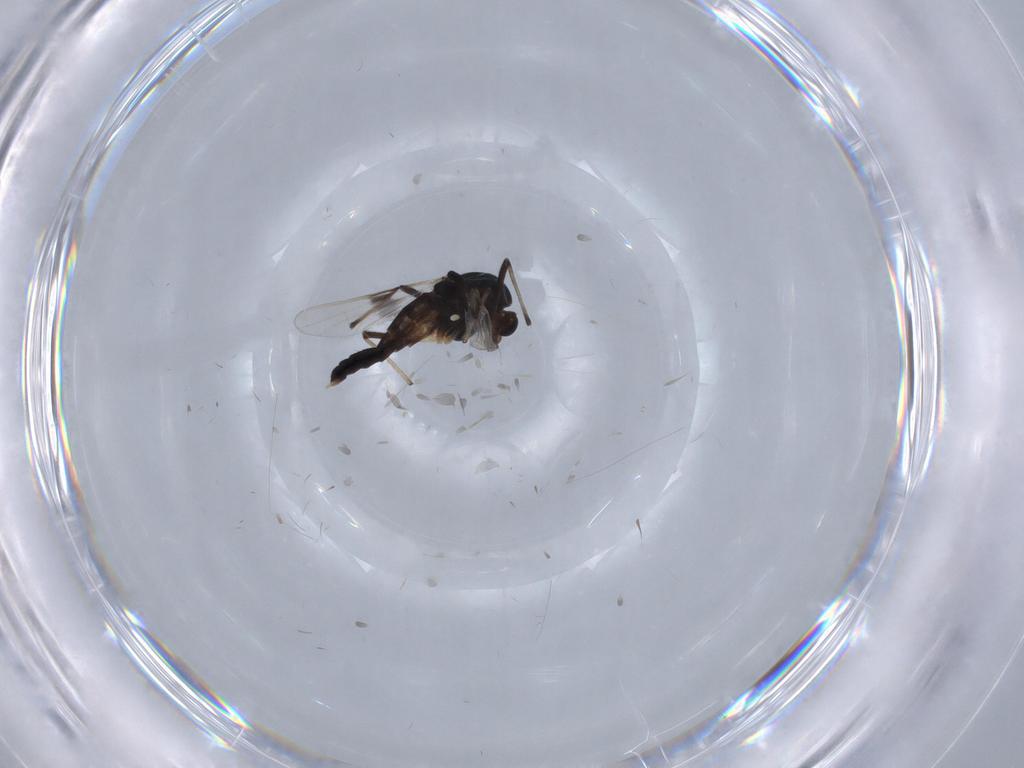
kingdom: Animalia
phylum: Arthropoda
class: Insecta
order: Diptera
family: Chironomidae
